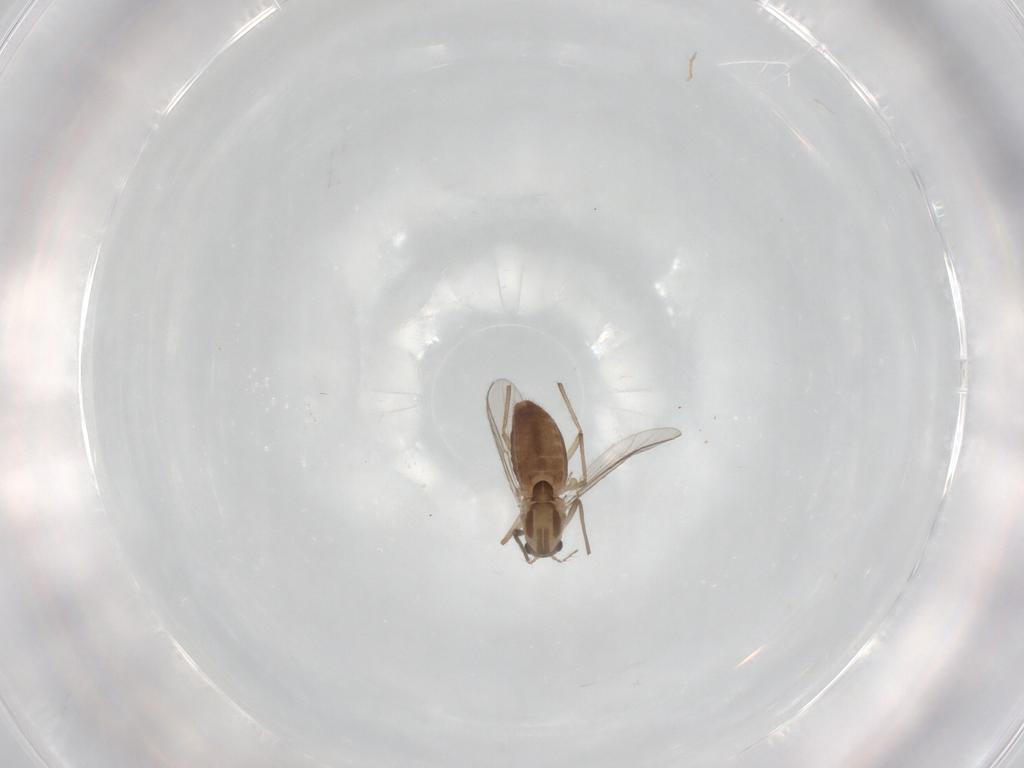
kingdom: Animalia
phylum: Arthropoda
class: Insecta
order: Diptera
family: Chironomidae
